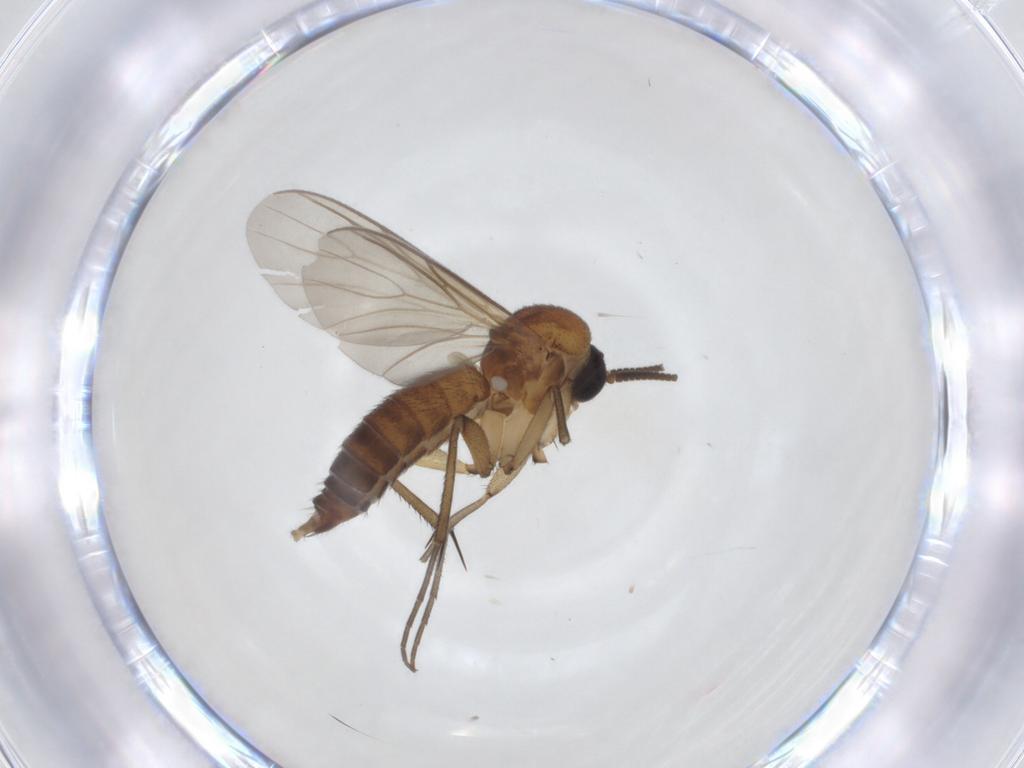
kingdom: Animalia
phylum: Arthropoda
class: Insecta
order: Diptera
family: Mycetophilidae
